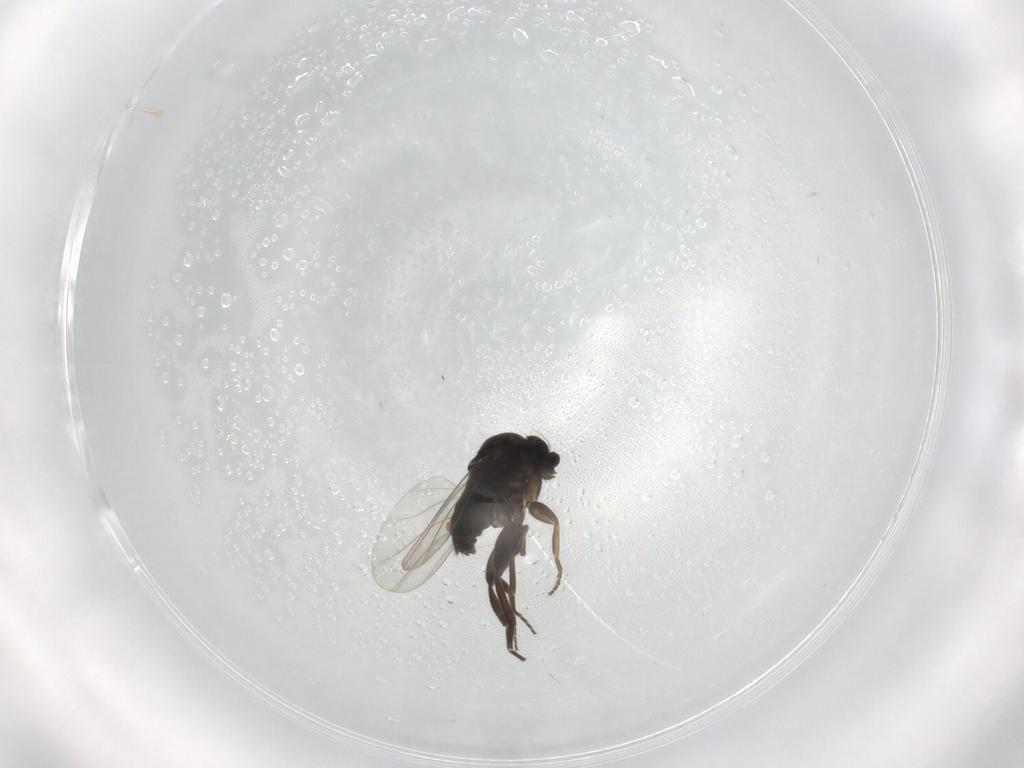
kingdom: Animalia
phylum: Arthropoda
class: Insecta
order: Diptera
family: Phoridae
